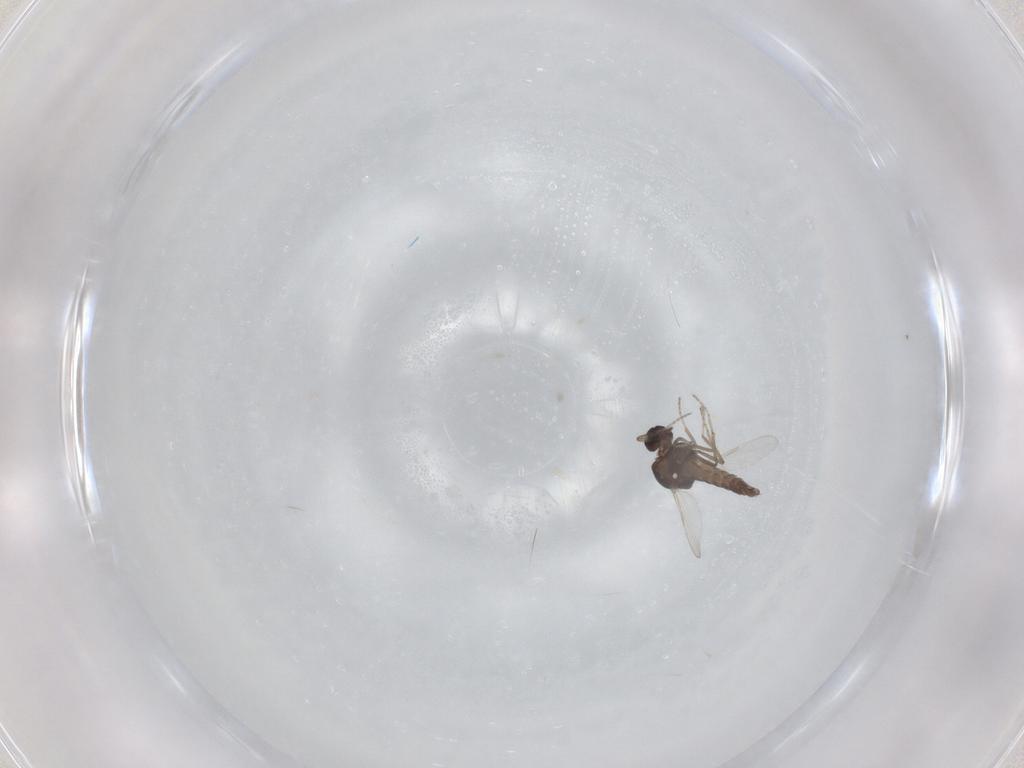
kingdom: Animalia
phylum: Arthropoda
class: Insecta
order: Diptera
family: Ceratopogonidae
